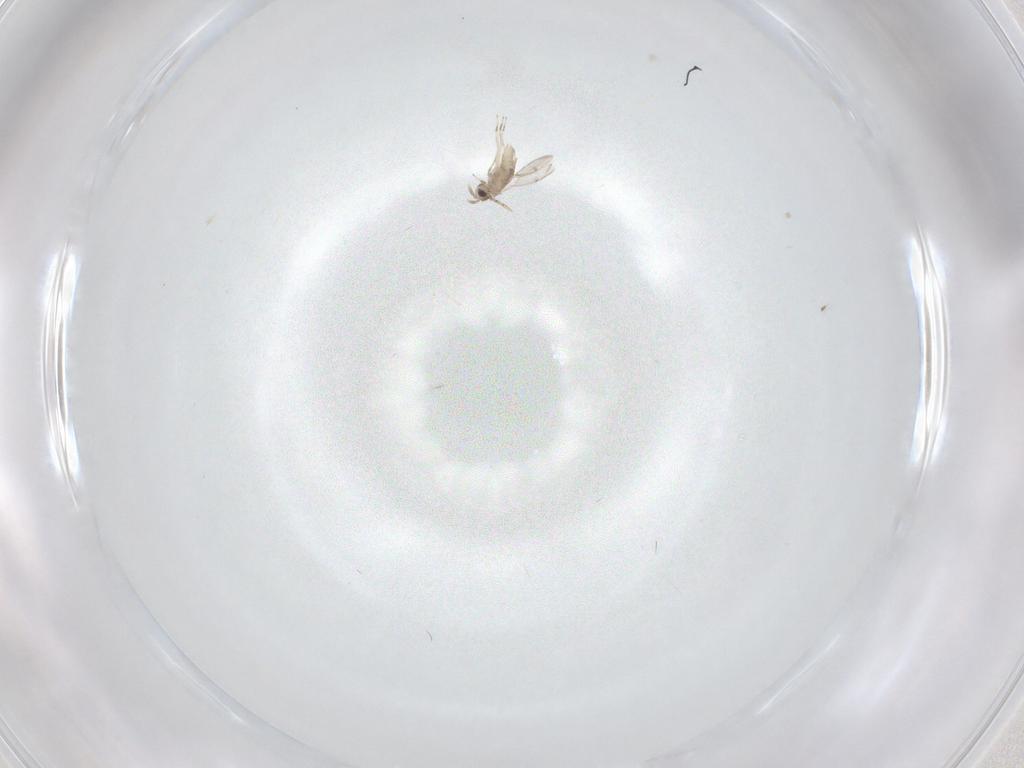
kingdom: Animalia
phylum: Arthropoda
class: Insecta
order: Hymenoptera
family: Aphelinidae
